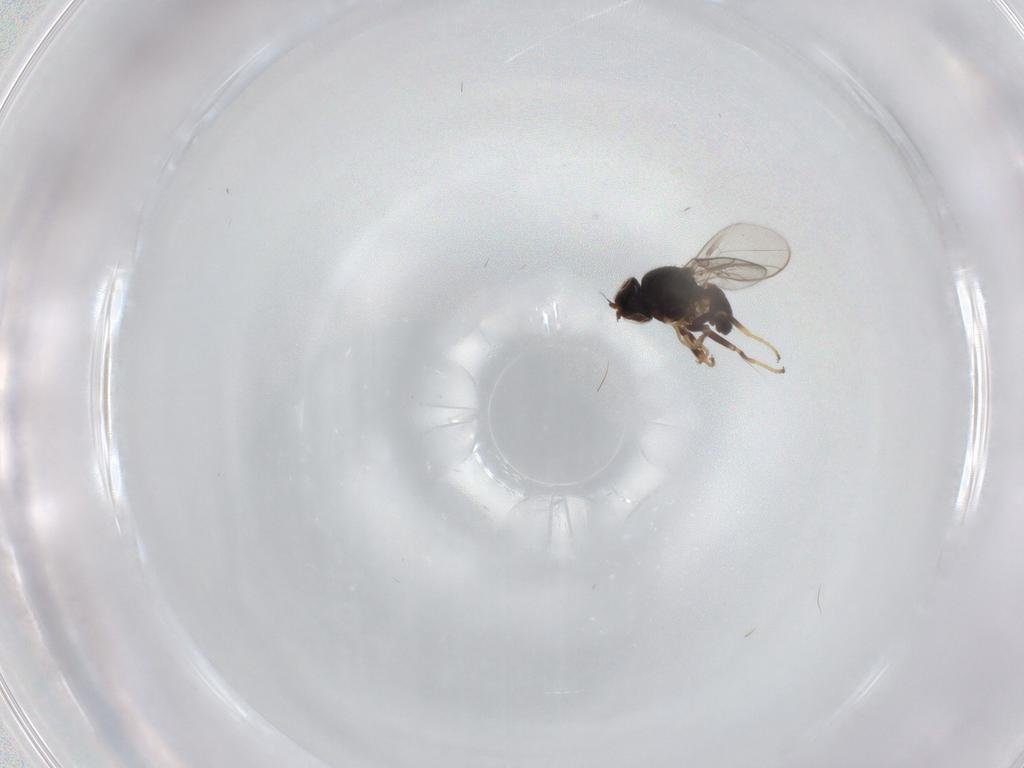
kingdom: Animalia
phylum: Arthropoda
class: Insecta
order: Diptera
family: Chloropidae
